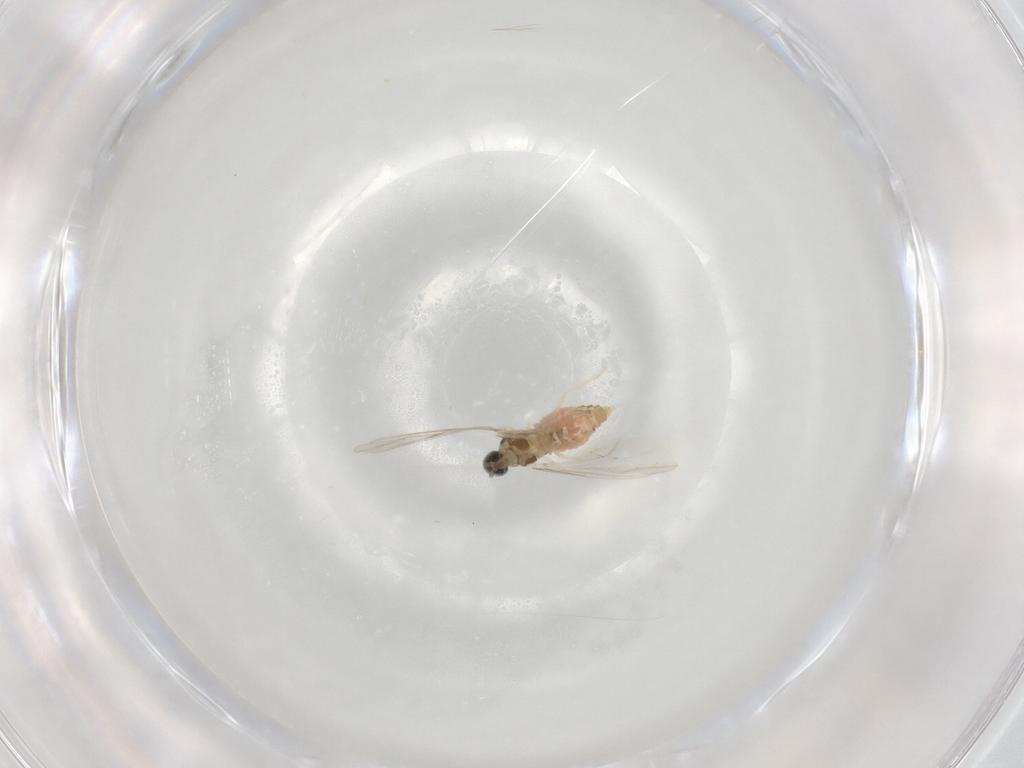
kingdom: Animalia
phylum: Arthropoda
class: Insecta
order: Diptera
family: Cecidomyiidae
